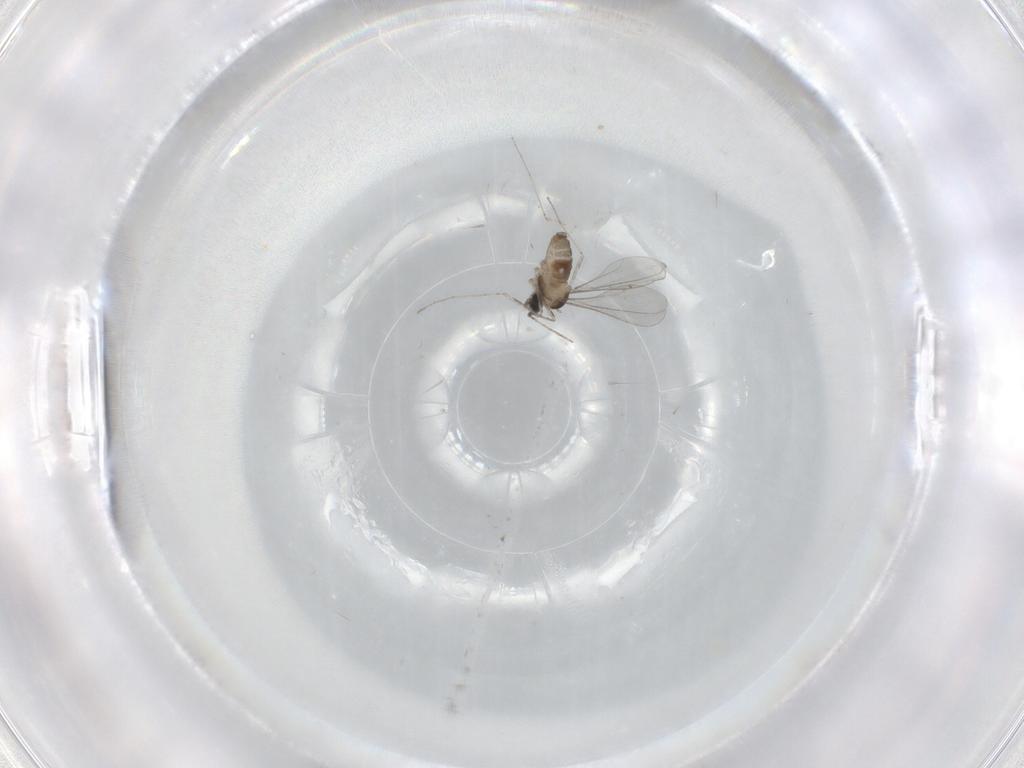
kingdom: Animalia
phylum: Arthropoda
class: Insecta
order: Diptera
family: Cecidomyiidae
